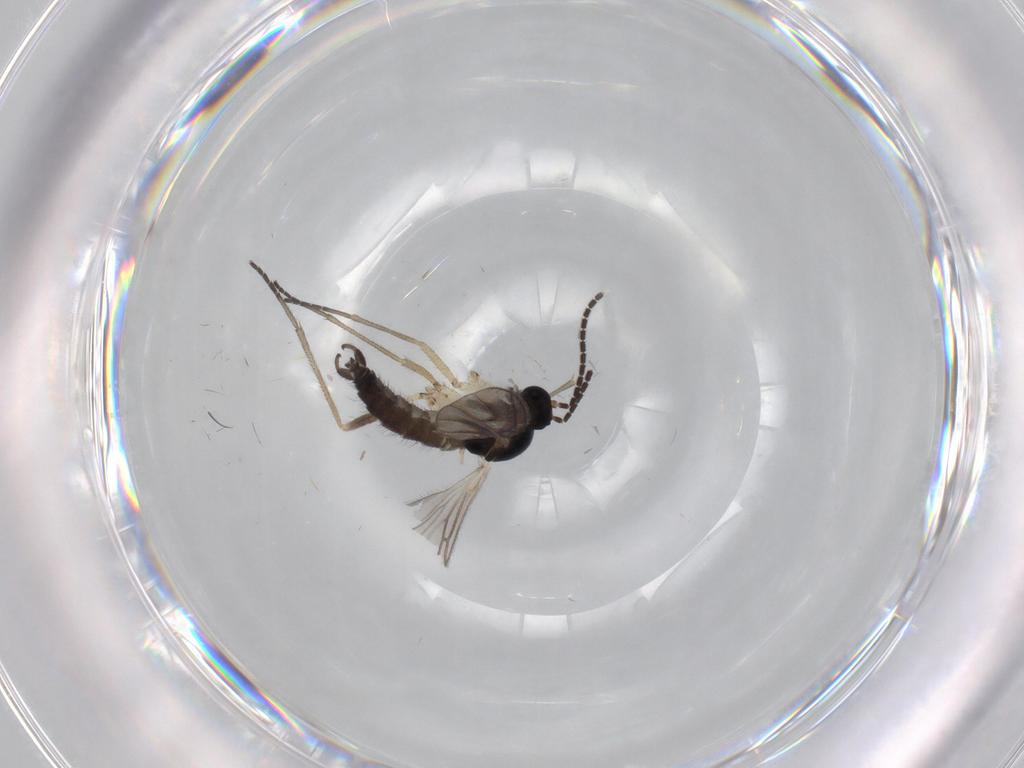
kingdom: Animalia
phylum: Arthropoda
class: Insecta
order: Diptera
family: Sciaridae
